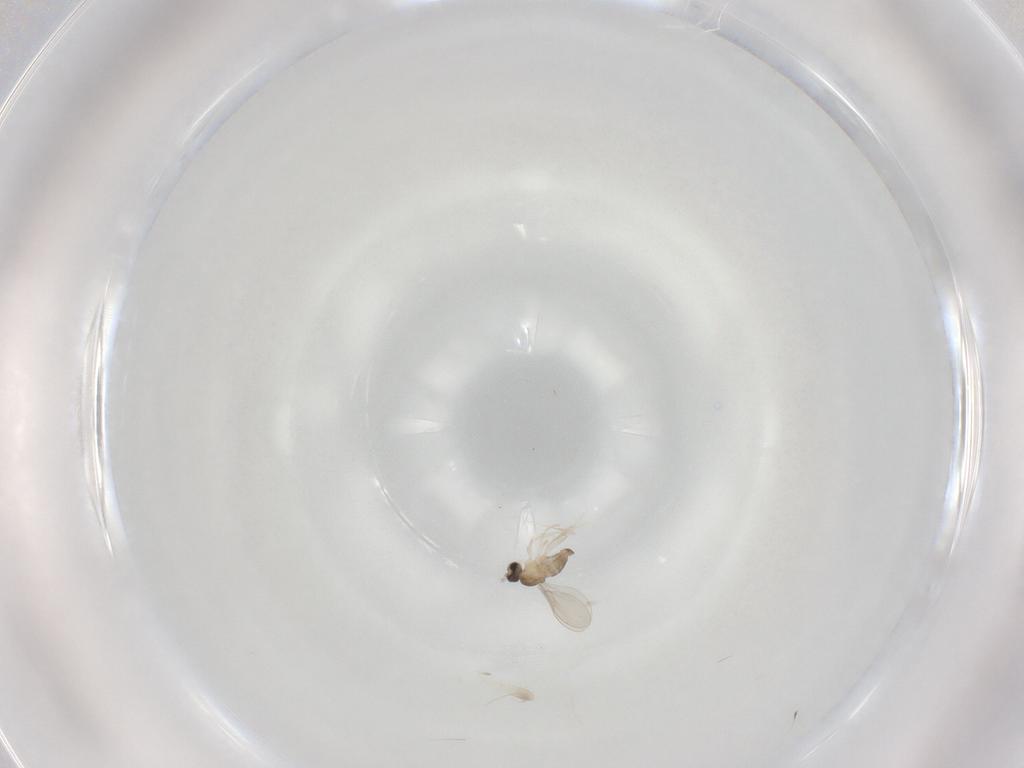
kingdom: Animalia
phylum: Arthropoda
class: Insecta
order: Diptera
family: Cecidomyiidae
